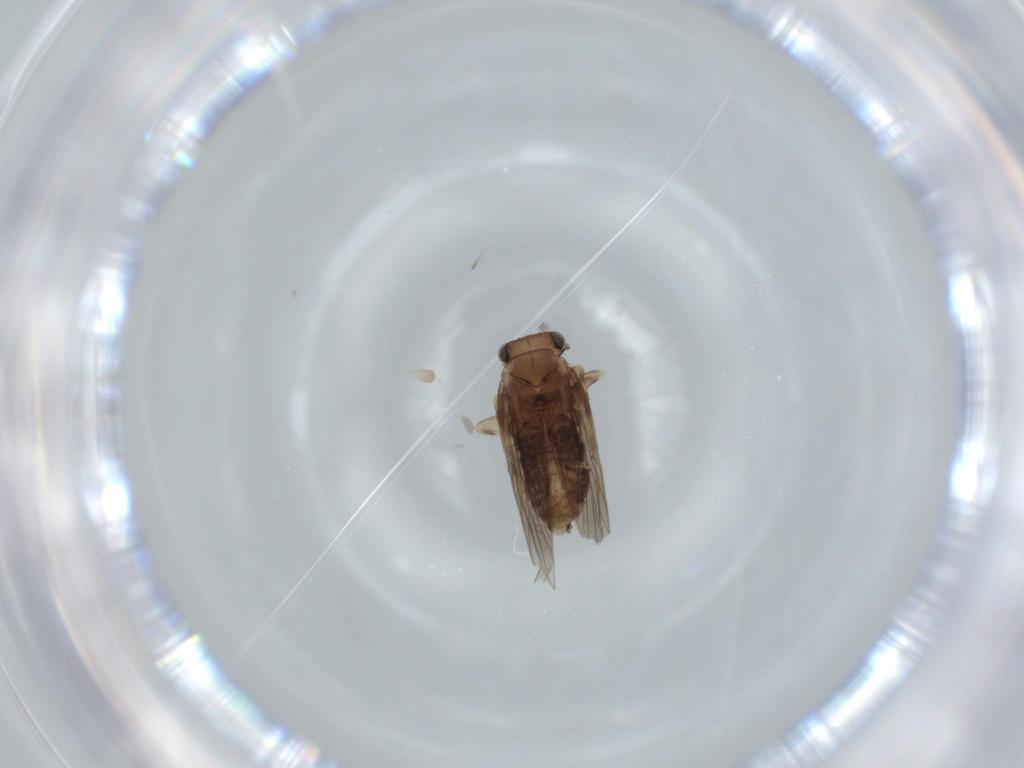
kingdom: Animalia
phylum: Arthropoda
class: Insecta
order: Psocodea
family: Lepidopsocidae
